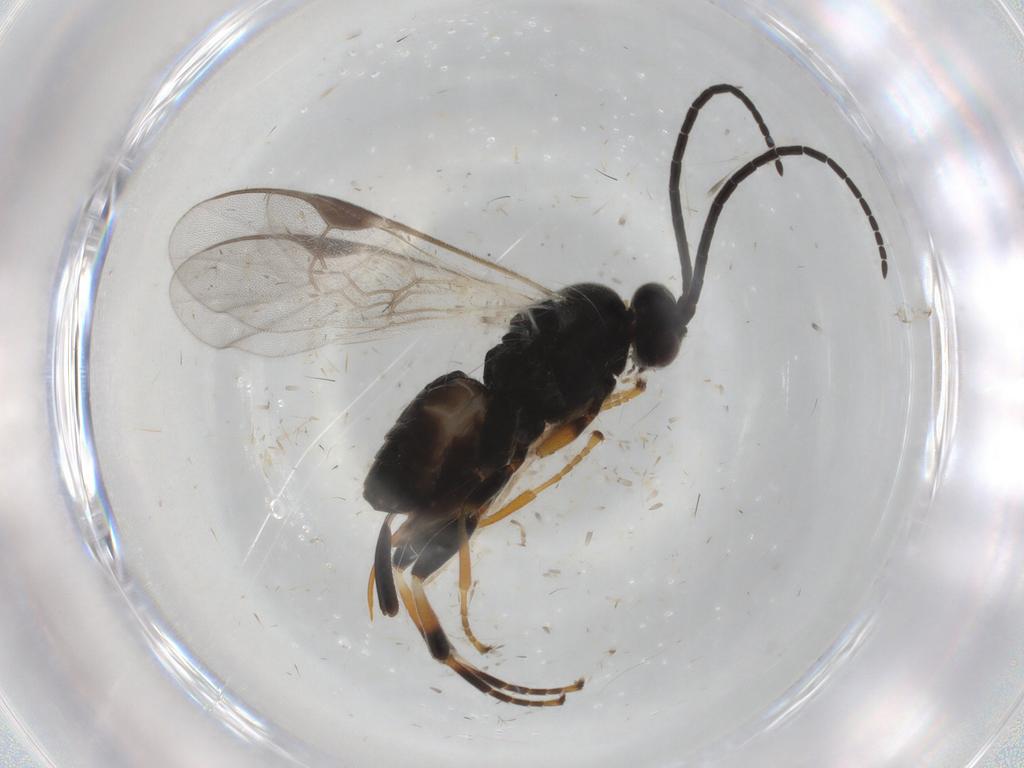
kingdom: Animalia
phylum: Arthropoda
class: Insecta
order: Hymenoptera
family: Braconidae
